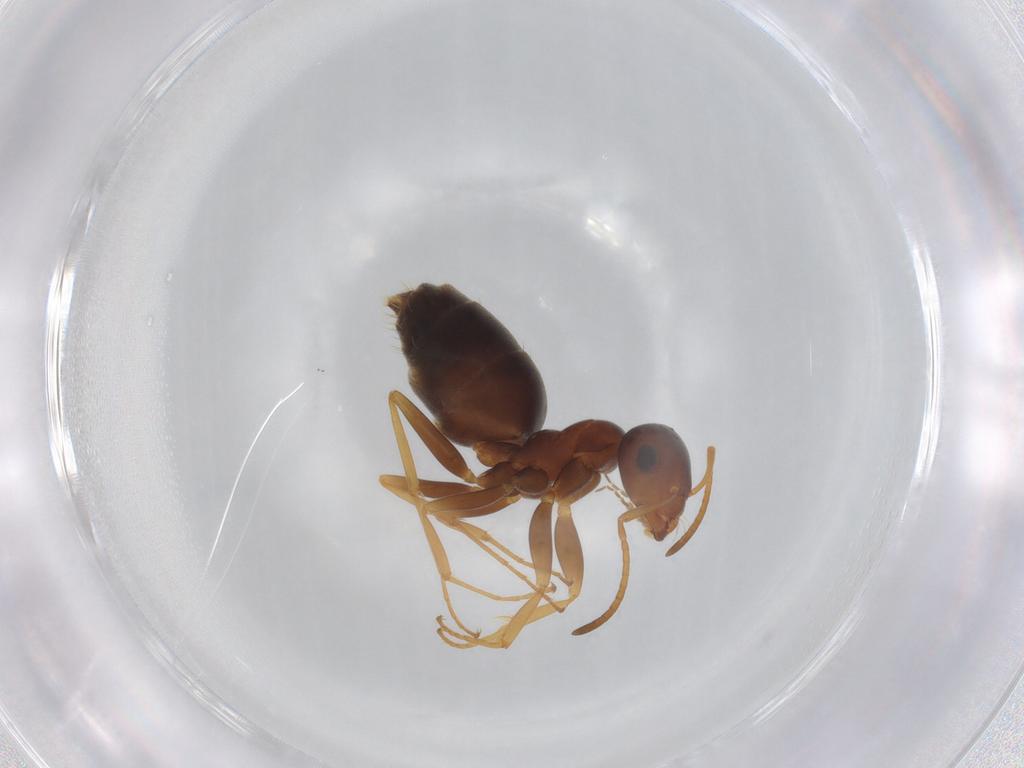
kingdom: Animalia
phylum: Arthropoda
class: Insecta
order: Hymenoptera
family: Formicidae
